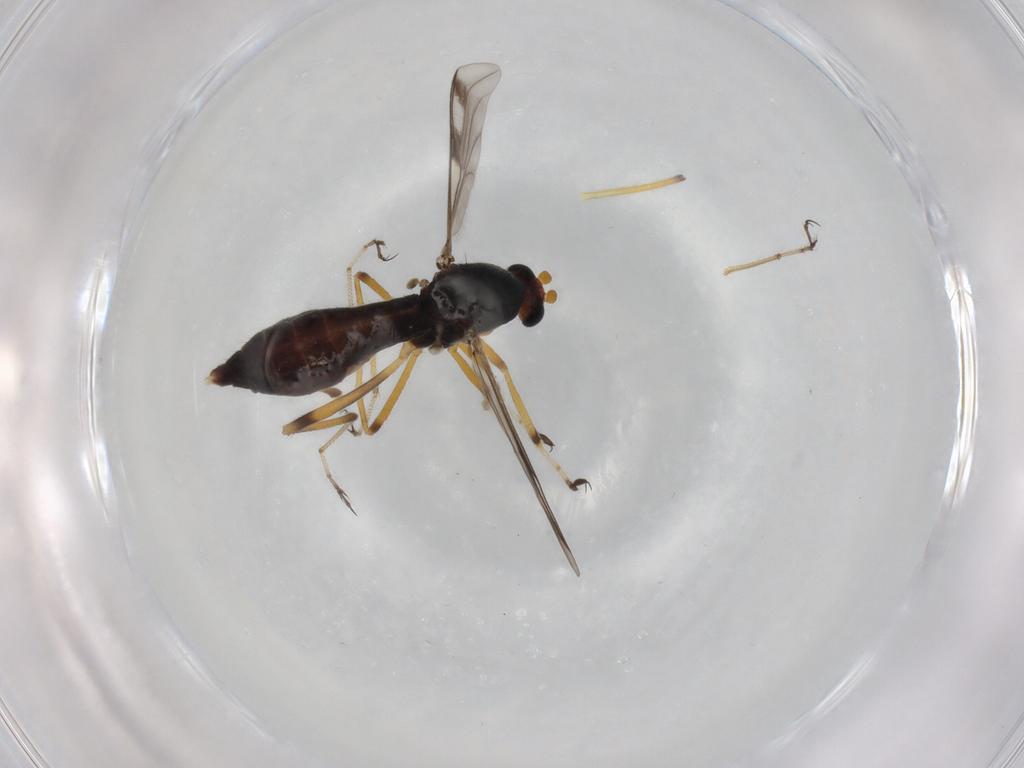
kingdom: Animalia
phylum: Arthropoda
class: Insecta
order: Diptera
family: Ceratopogonidae
